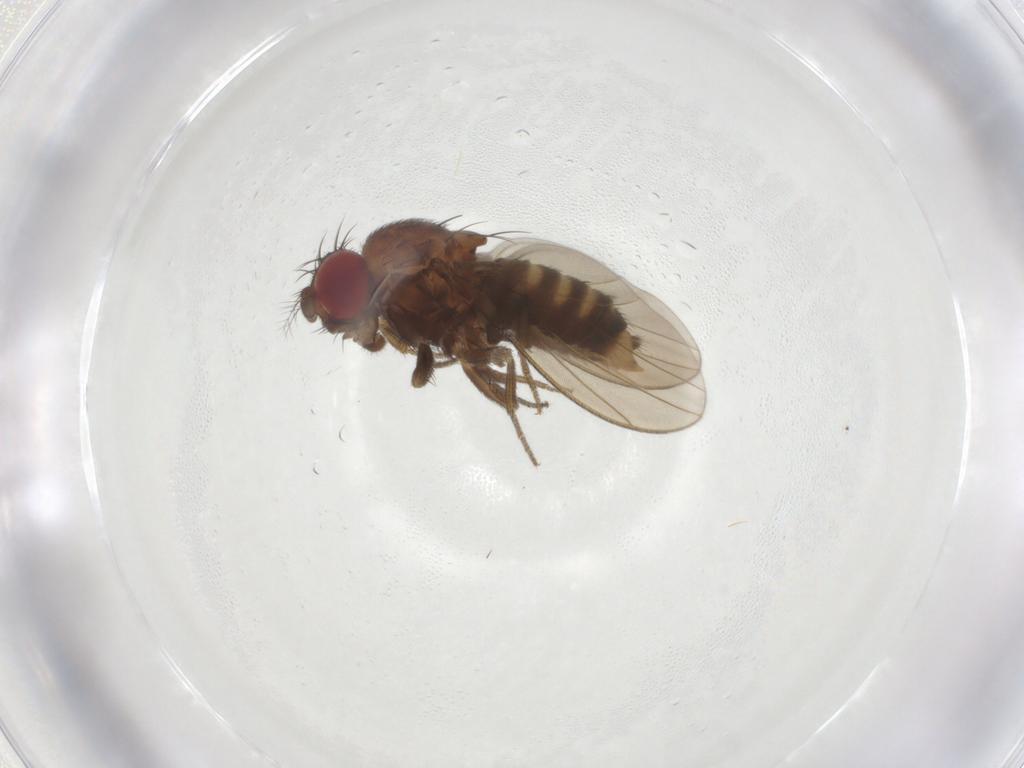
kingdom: Animalia
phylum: Arthropoda
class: Insecta
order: Diptera
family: Drosophilidae
